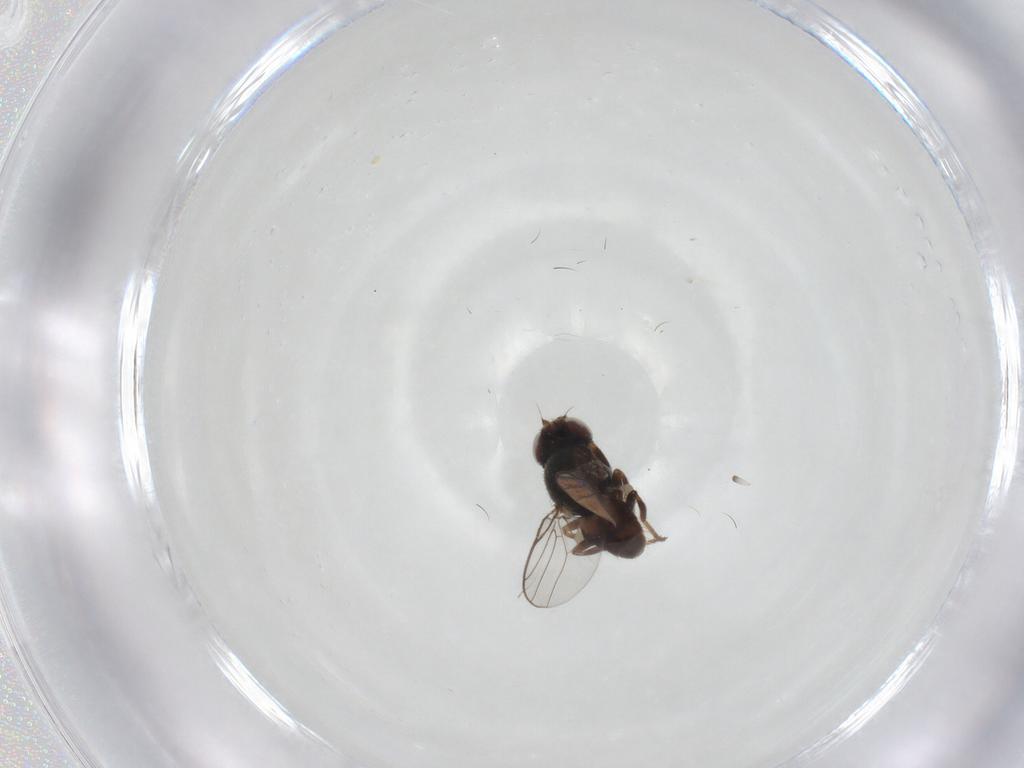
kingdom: Animalia
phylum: Arthropoda
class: Insecta
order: Diptera
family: Chloropidae
